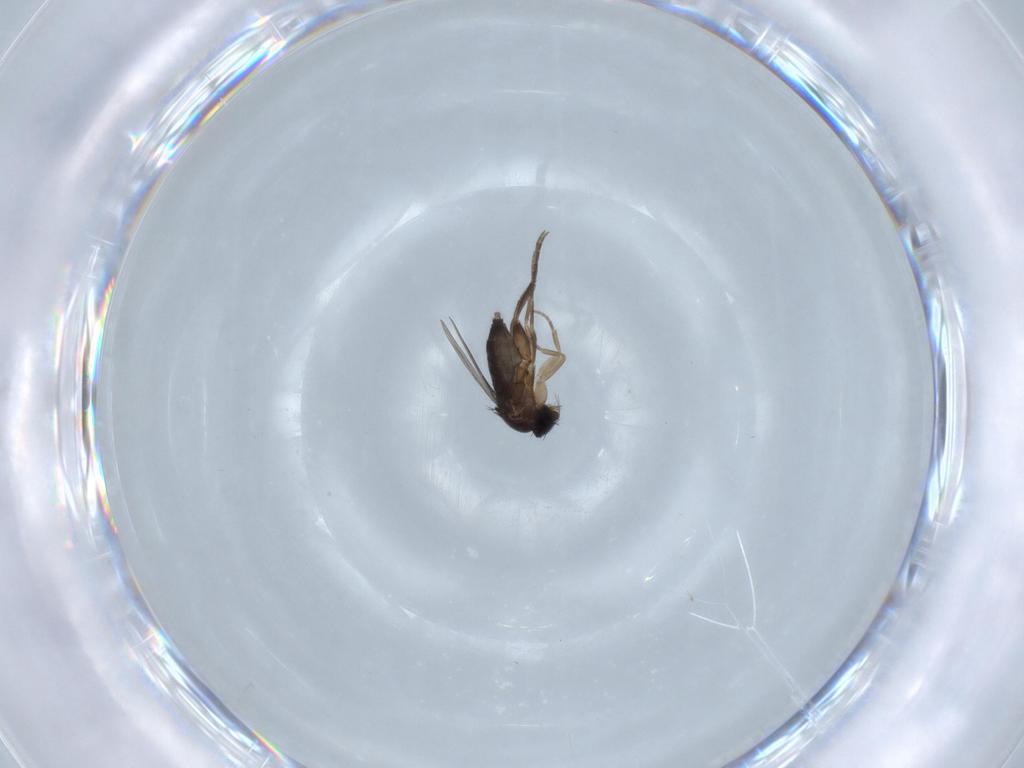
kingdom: Animalia
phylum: Arthropoda
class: Insecta
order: Diptera
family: Phoridae
